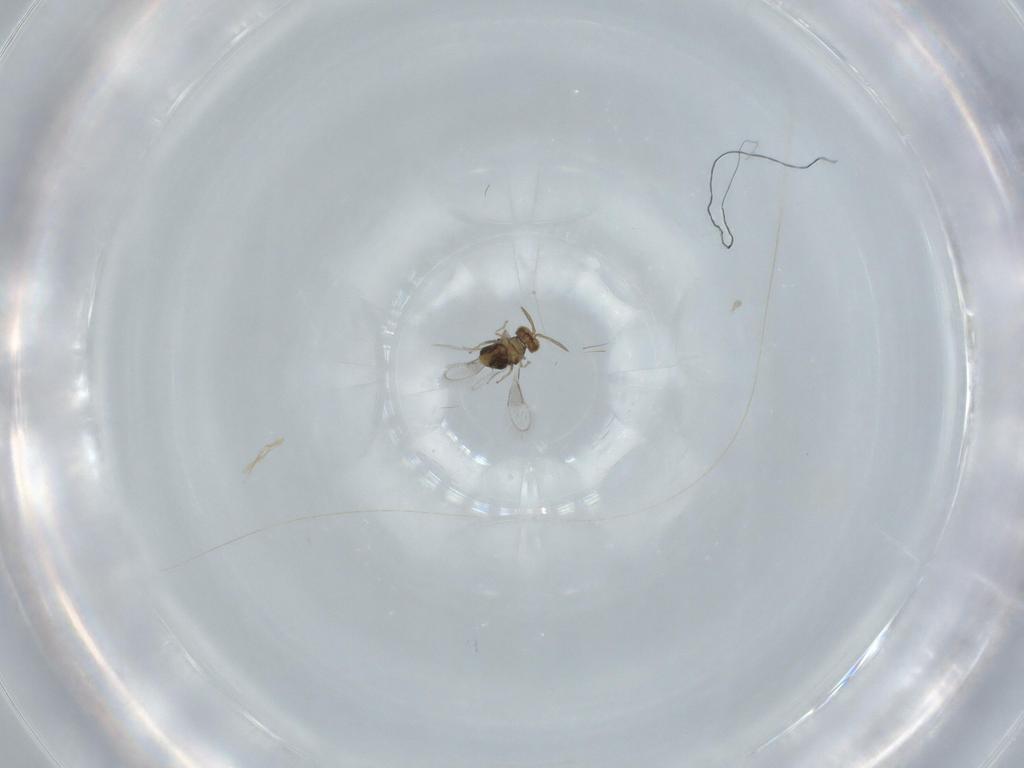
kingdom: Animalia
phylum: Arthropoda
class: Insecta
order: Hymenoptera
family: Aphelinidae
